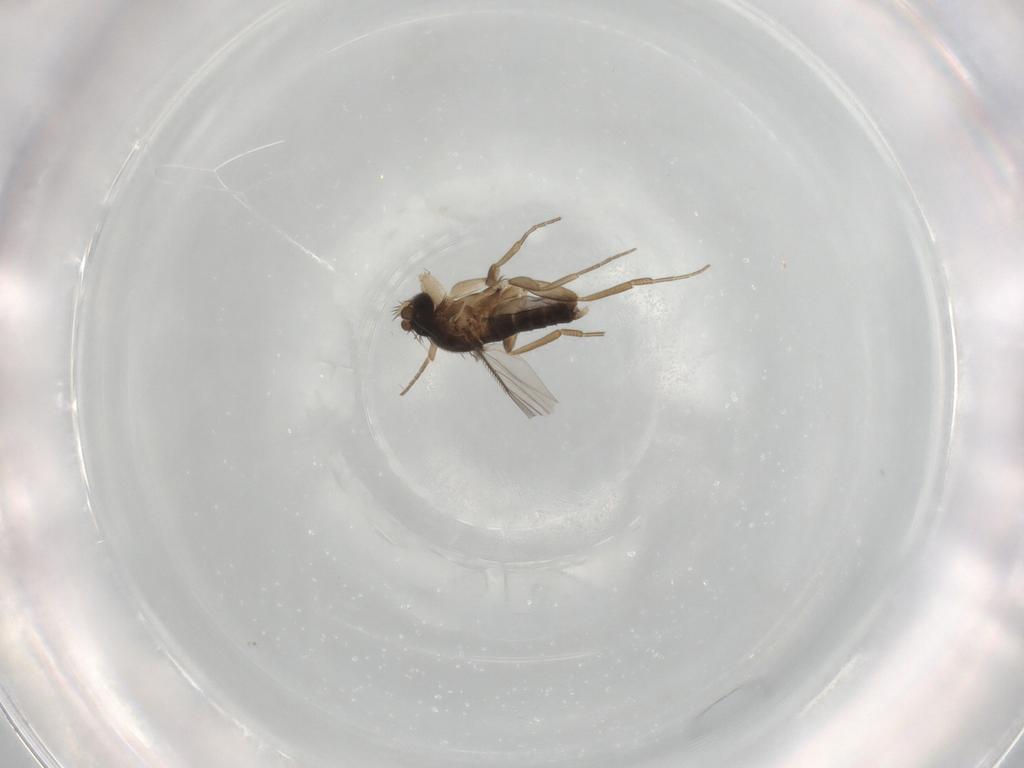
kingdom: Animalia
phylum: Arthropoda
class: Insecta
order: Diptera
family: Phoridae
